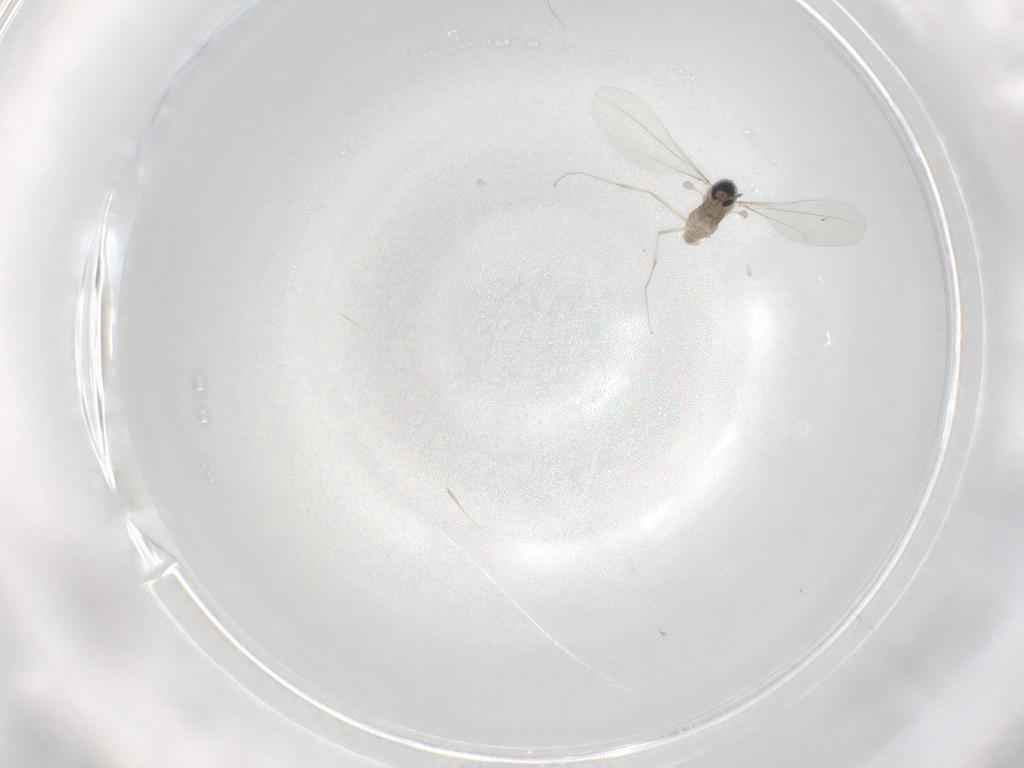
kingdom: Animalia
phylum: Arthropoda
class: Insecta
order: Diptera
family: Cecidomyiidae
